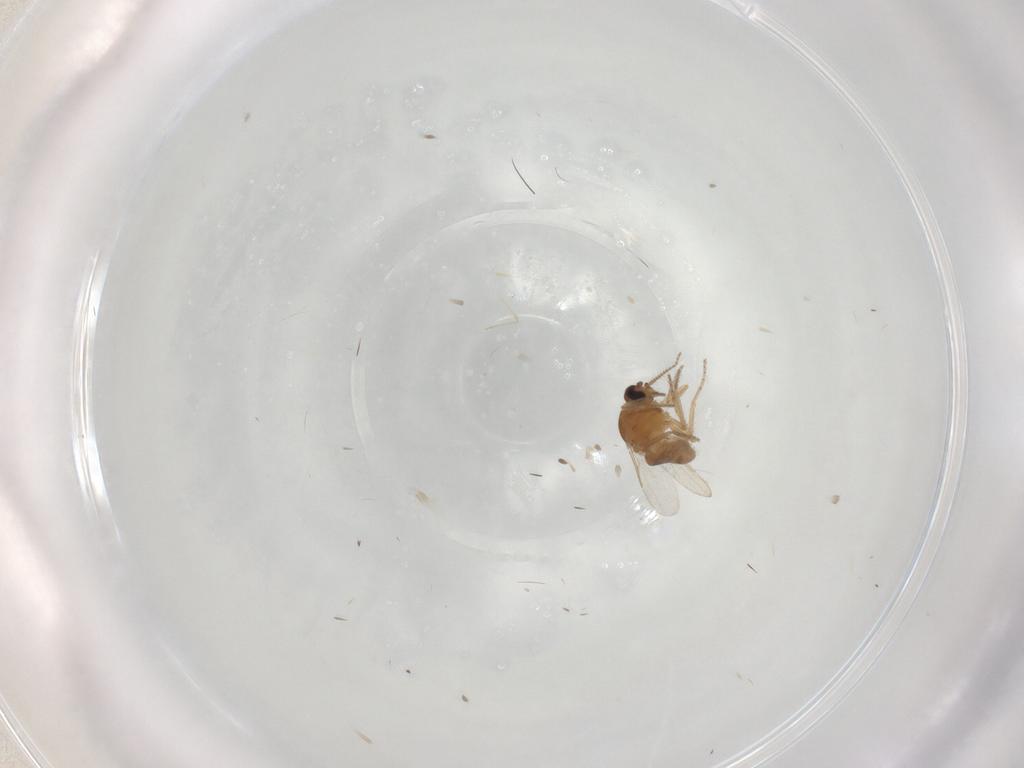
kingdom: Animalia
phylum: Arthropoda
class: Insecta
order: Diptera
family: Ceratopogonidae
